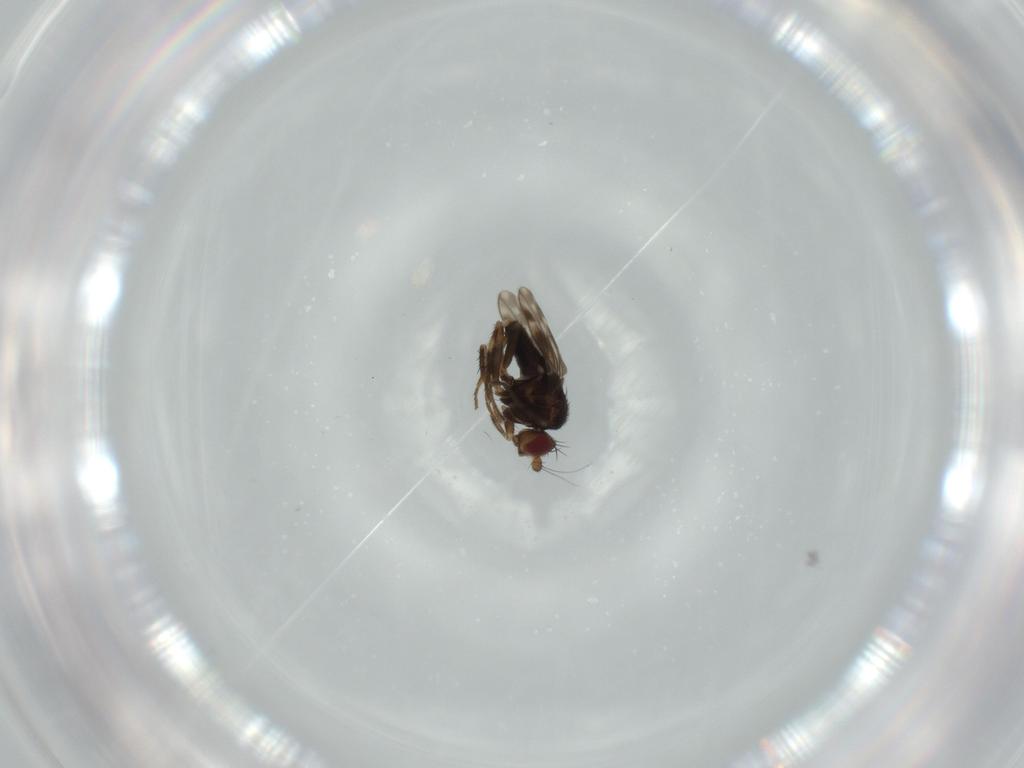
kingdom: Animalia
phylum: Arthropoda
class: Insecta
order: Diptera
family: Sphaeroceridae
